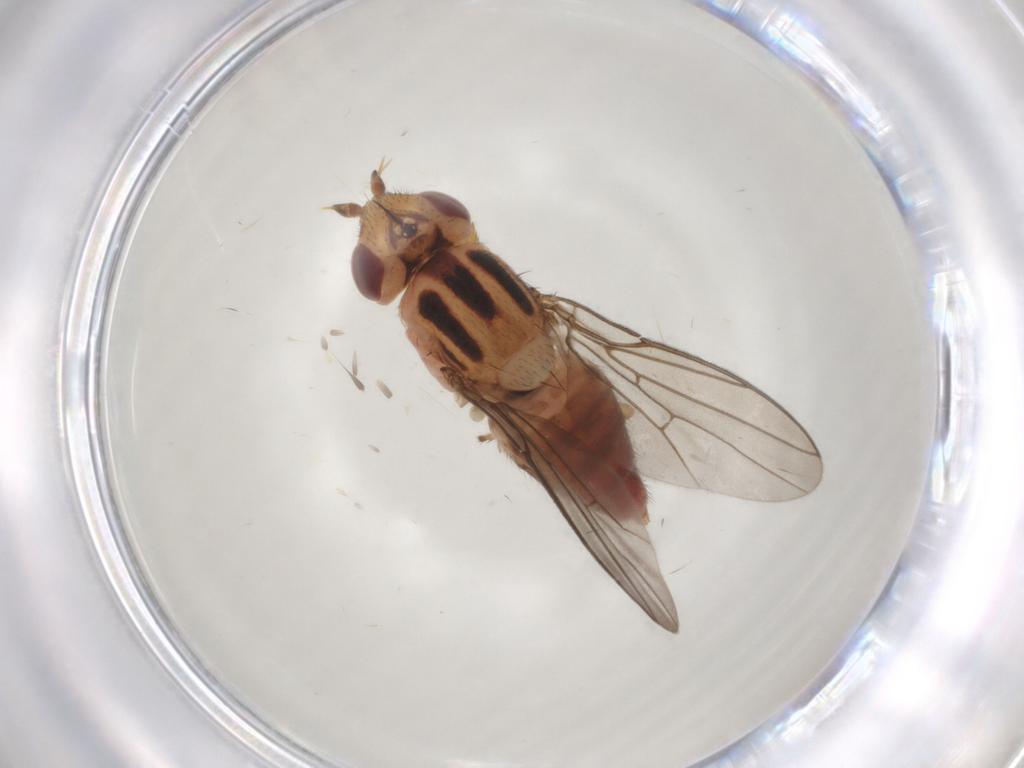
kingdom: Animalia
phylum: Arthropoda
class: Insecta
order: Diptera
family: Chloropidae
